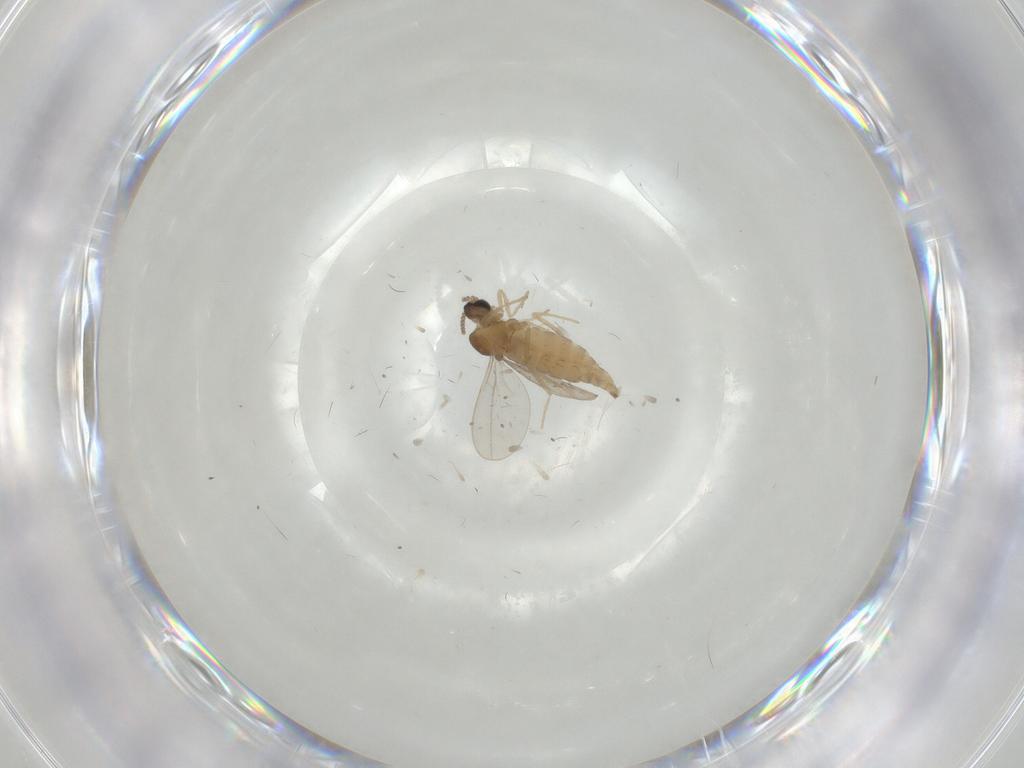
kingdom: Animalia
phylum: Arthropoda
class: Insecta
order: Diptera
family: Cecidomyiidae
